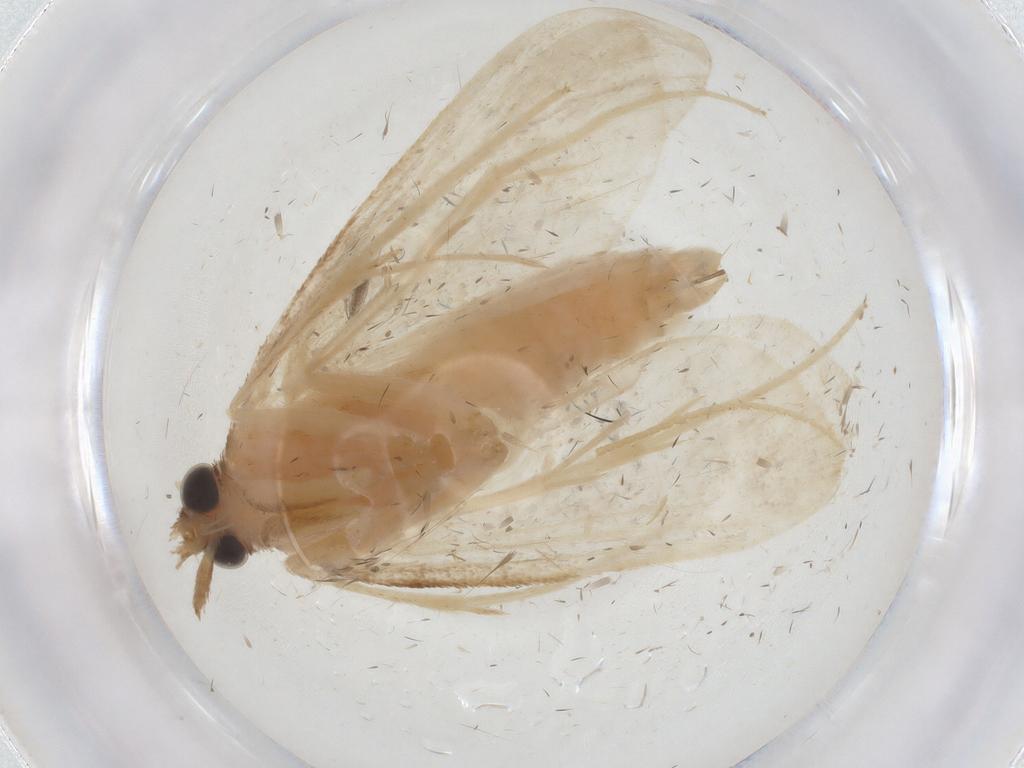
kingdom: Animalia
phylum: Arthropoda
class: Insecta
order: Lepidoptera
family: Crambidae
